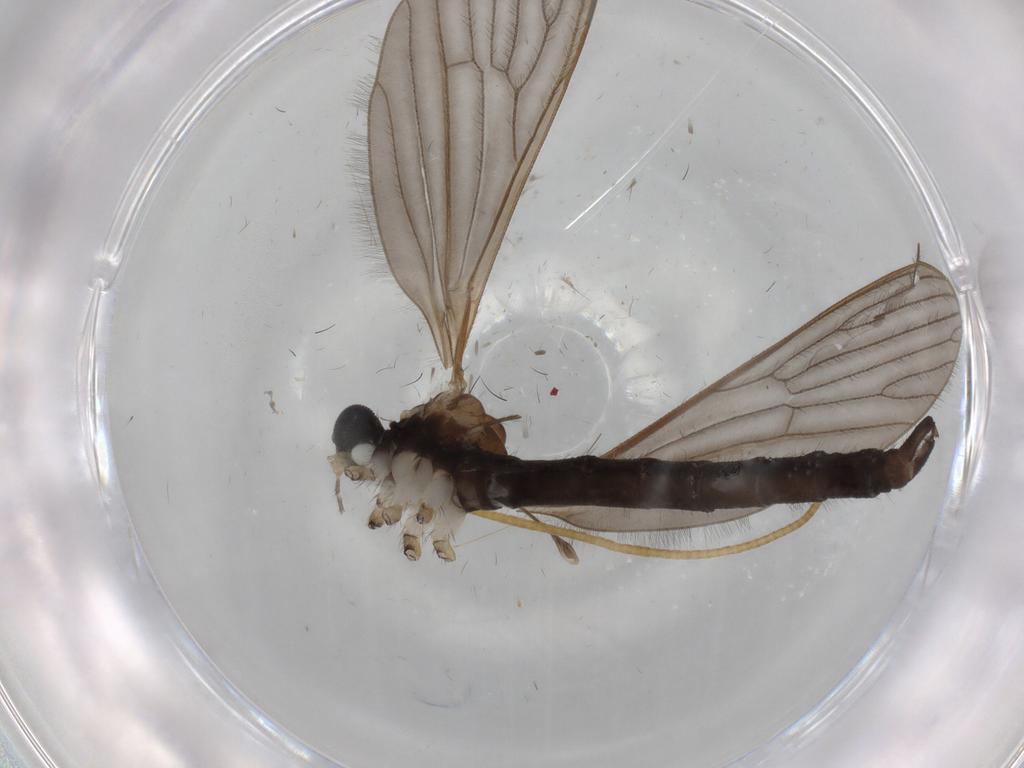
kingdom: Animalia
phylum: Arthropoda
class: Insecta
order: Diptera
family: Sciaridae
